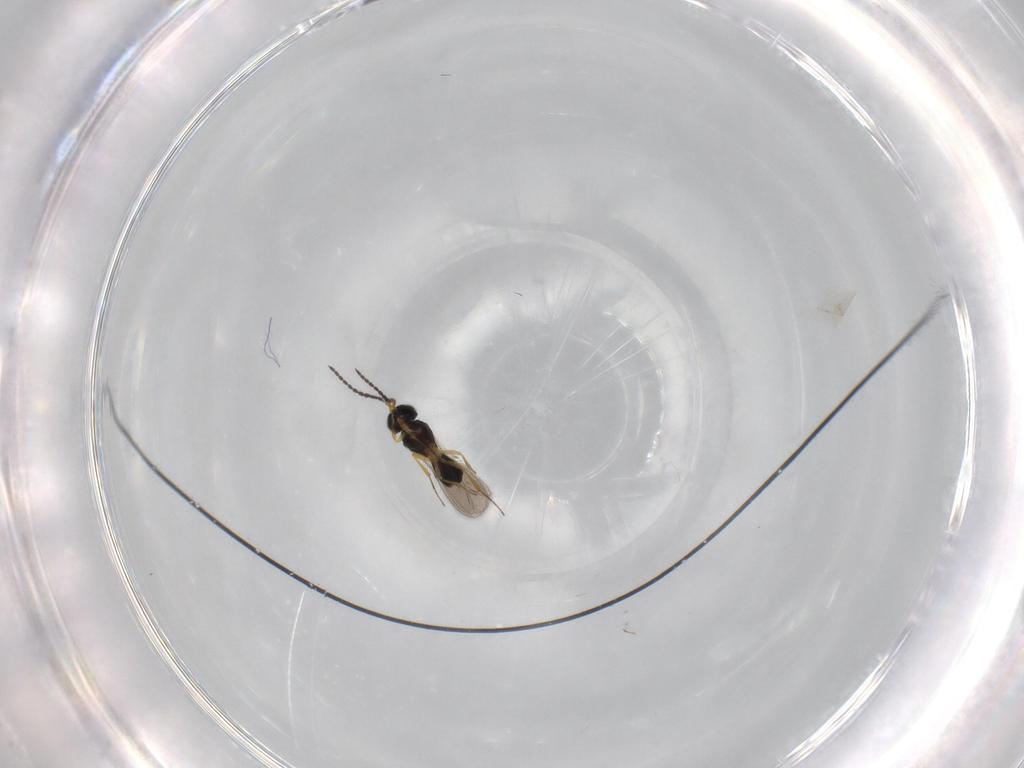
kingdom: Animalia
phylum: Arthropoda
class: Insecta
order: Hymenoptera
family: Scelionidae
